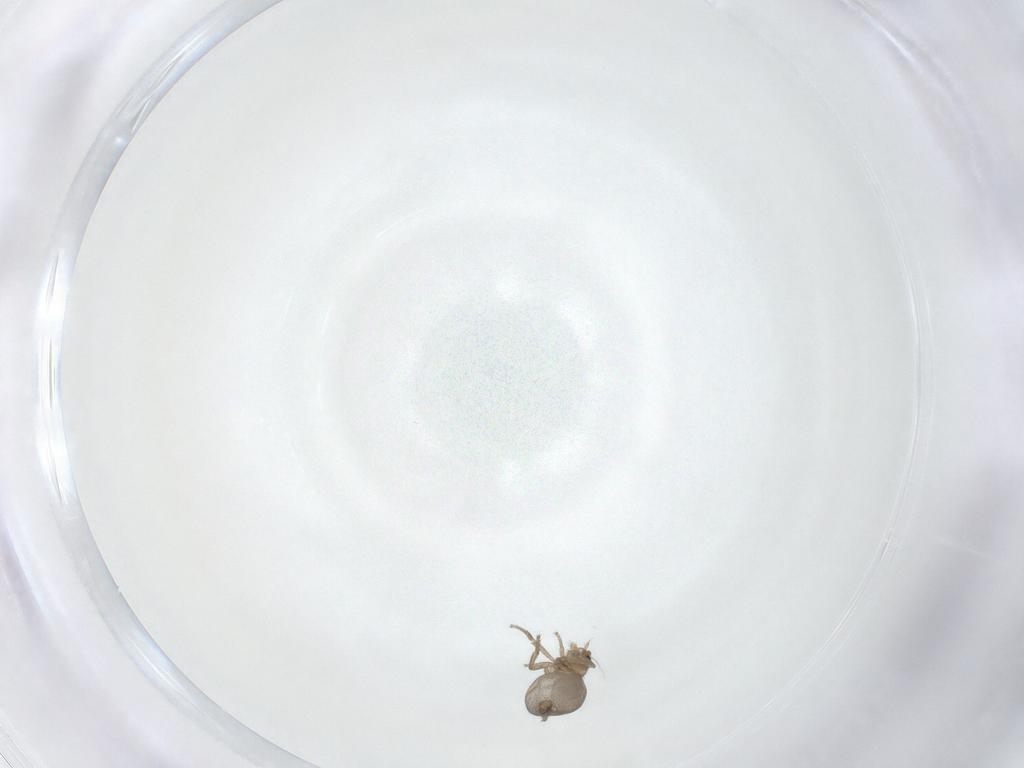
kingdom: Animalia
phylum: Arthropoda
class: Insecta
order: Diptera
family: Phoridae
